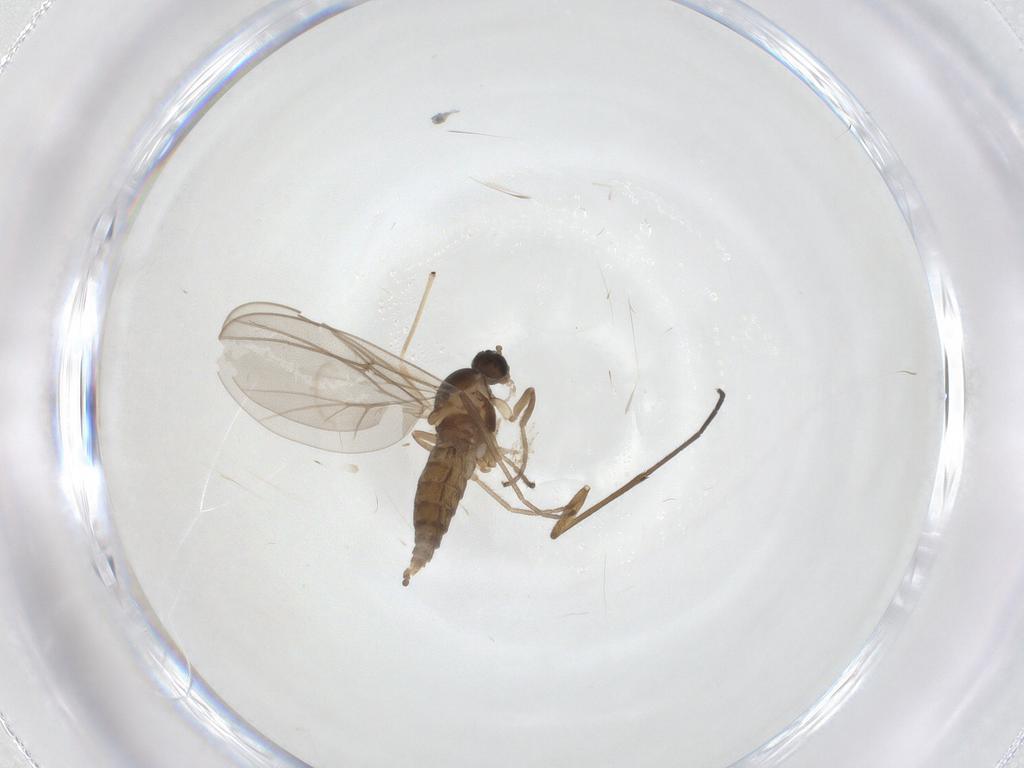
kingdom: Animalia
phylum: Arthropoda
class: Insecta
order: Diptera
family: Cecidomyiidae
